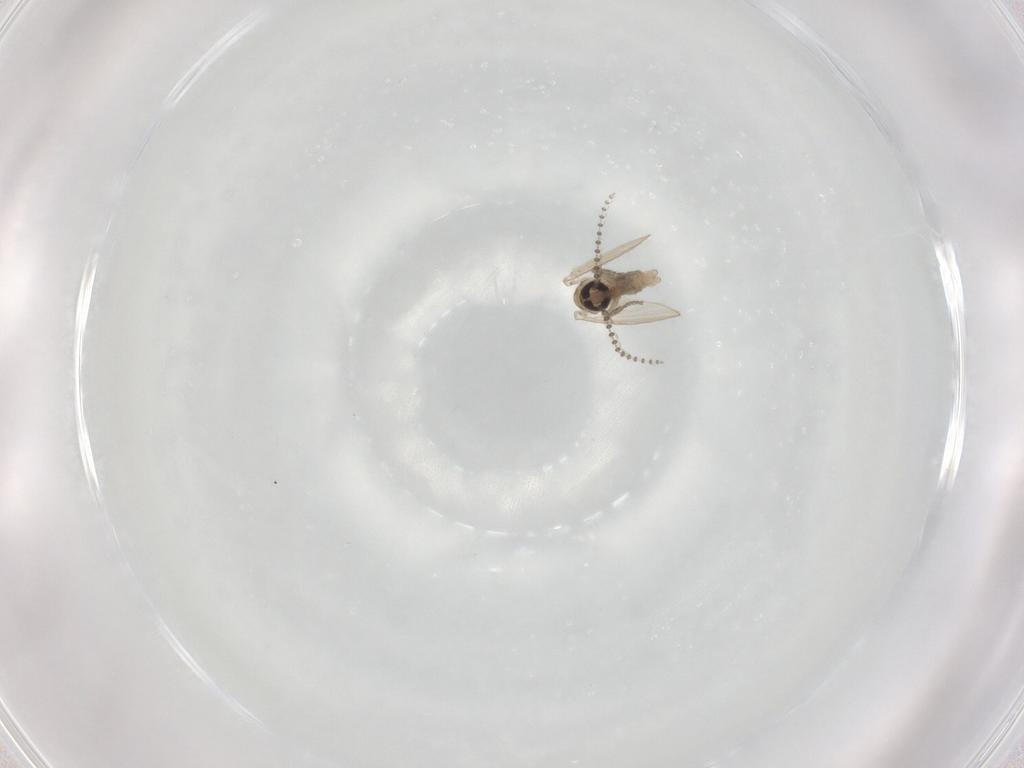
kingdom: Animalia
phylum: Arthropoda
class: Insecta
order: Diptera
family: Psychodidae
